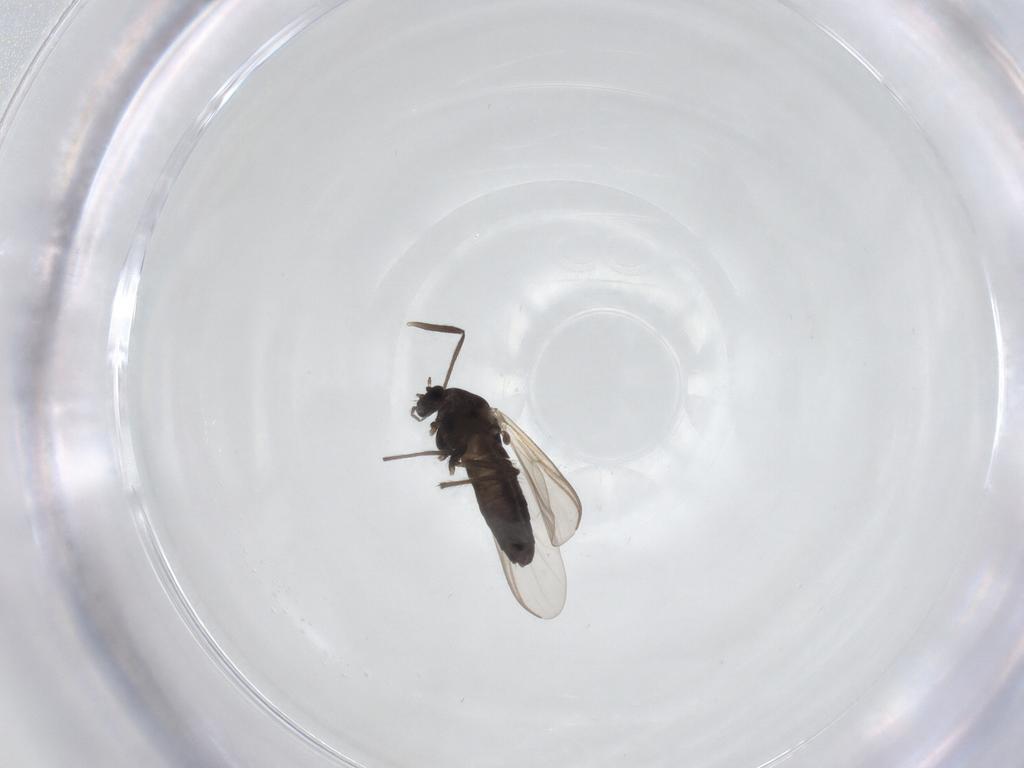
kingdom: Animalia
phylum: Arthropoda
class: Insecta
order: Diptera
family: Chironomidae
